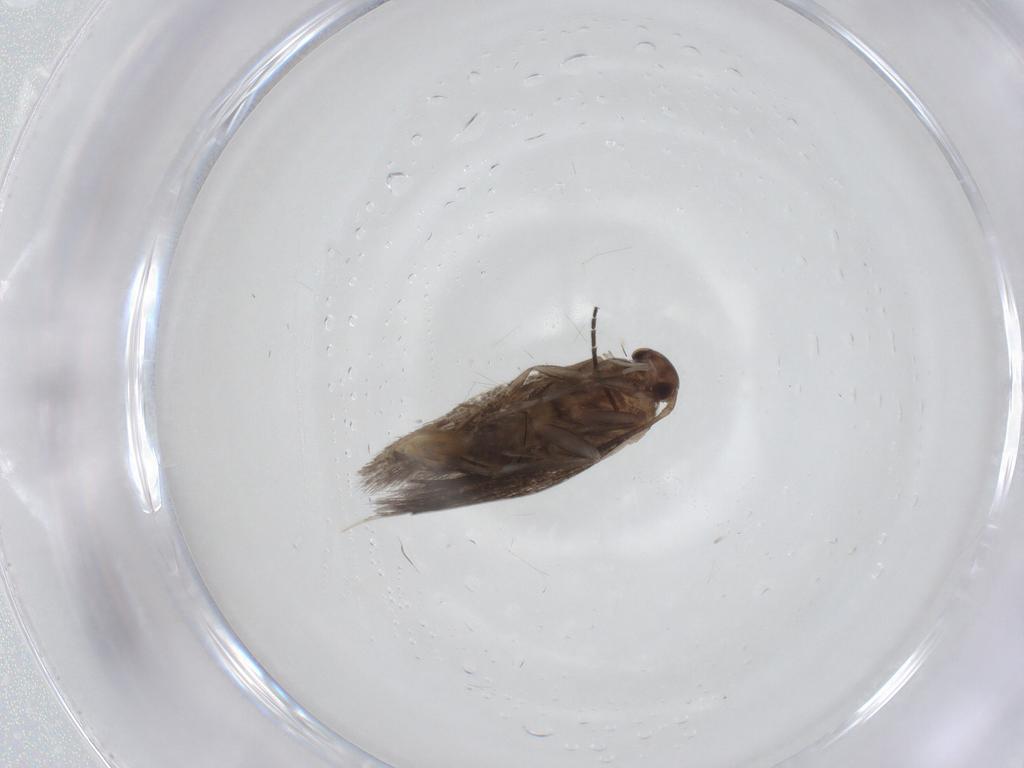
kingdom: Animalia
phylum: Arthropoda
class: Insecta
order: Lepidoptera
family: Elachistidae
